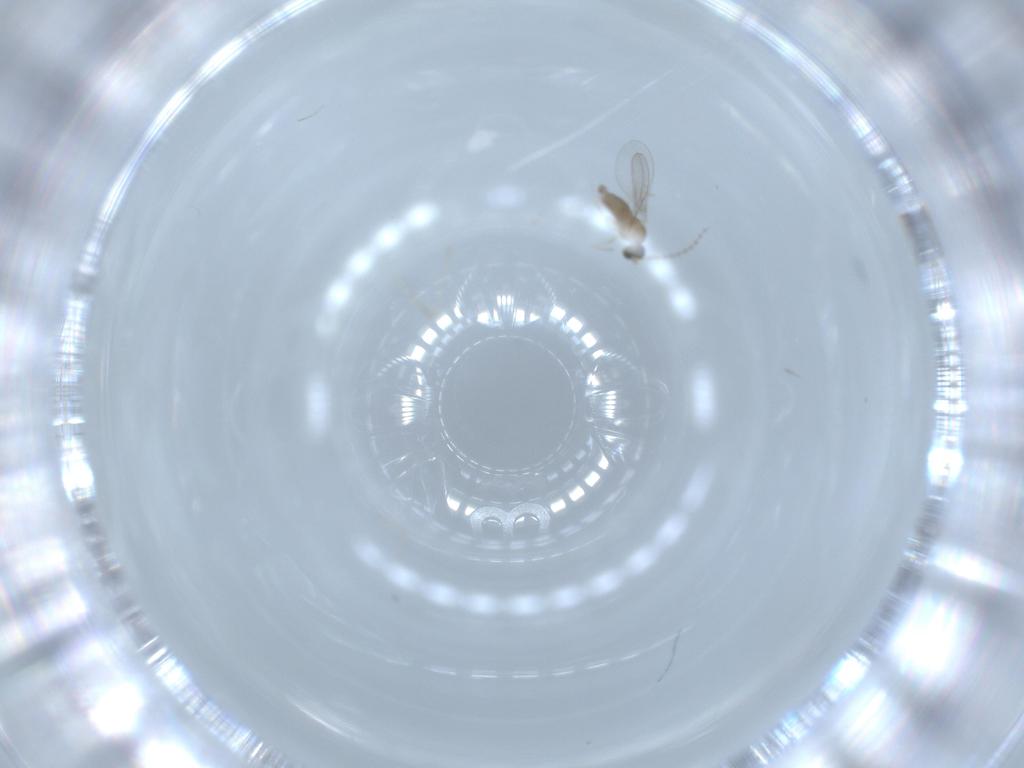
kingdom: Animalia
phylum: Arthropoda
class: Insecta
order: Diptera
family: Cecidomyiidae
